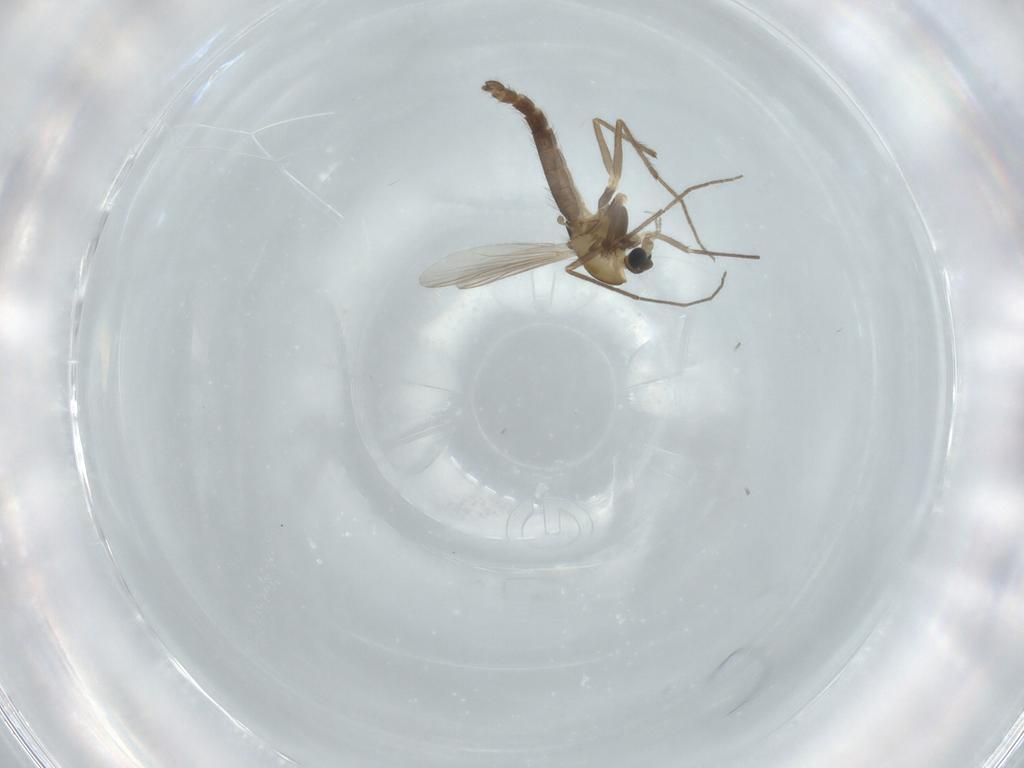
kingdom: Animalia
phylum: Arthropoda
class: Insecta
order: Diptera
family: Chironomidae
